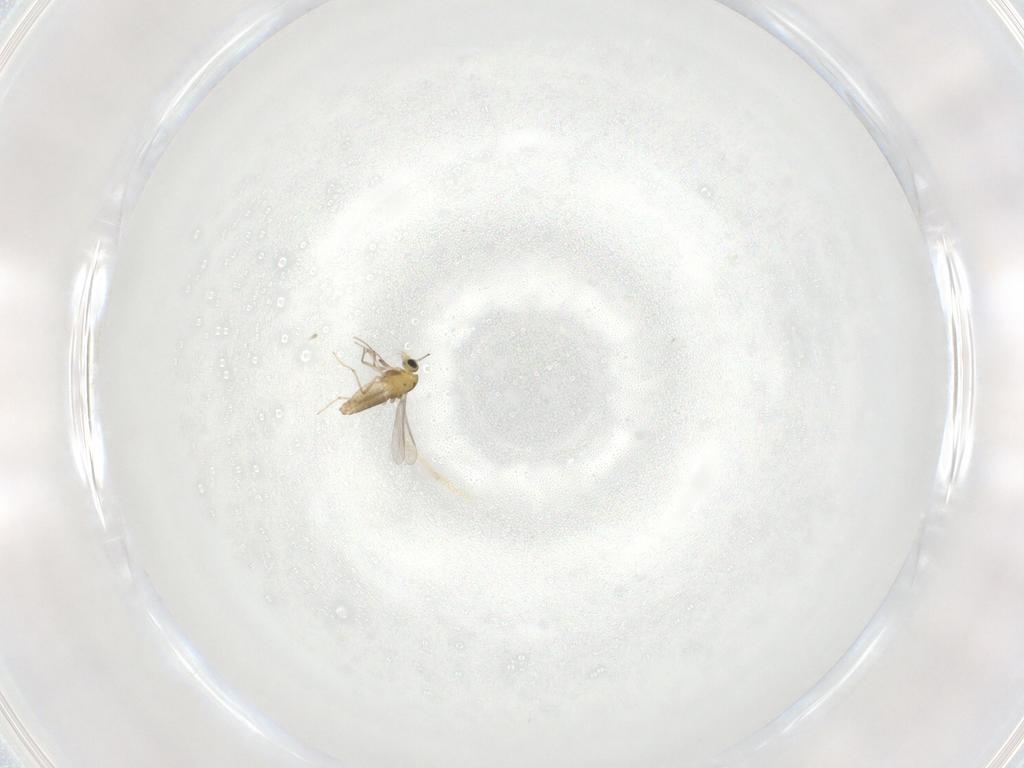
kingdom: Animalia
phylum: Arthropoda
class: Insecta
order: Diptera
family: Chironomidae
